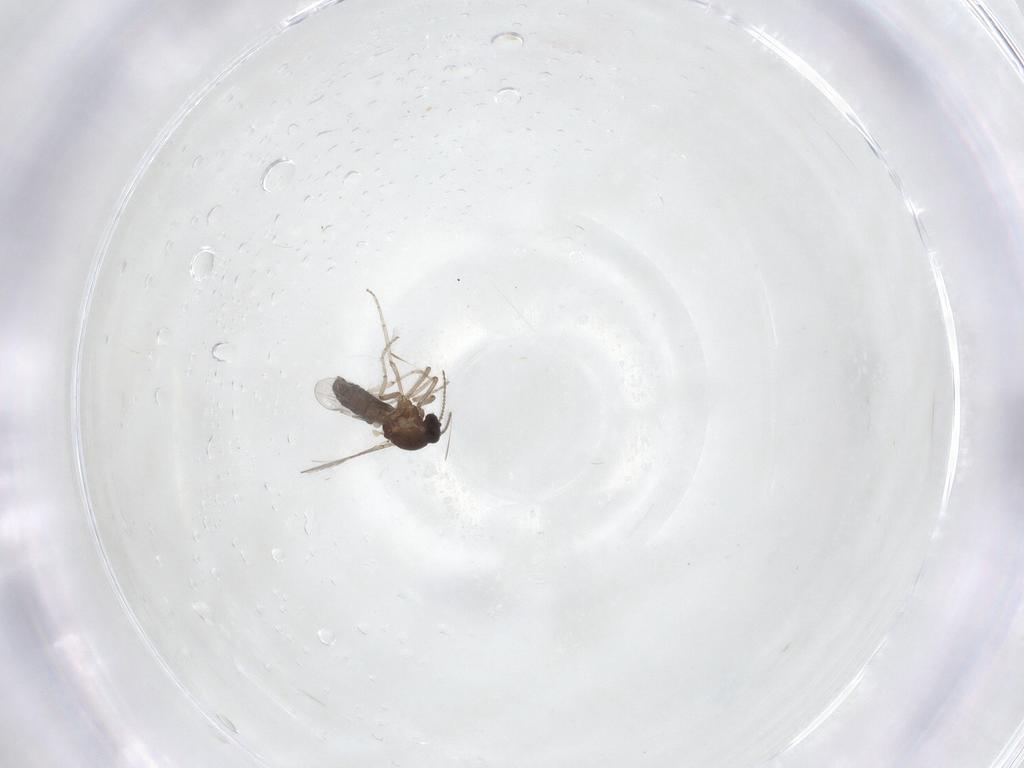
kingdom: Animalia
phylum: Arthropoda
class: Insecta
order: Diptera
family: Ceratopogonidae
